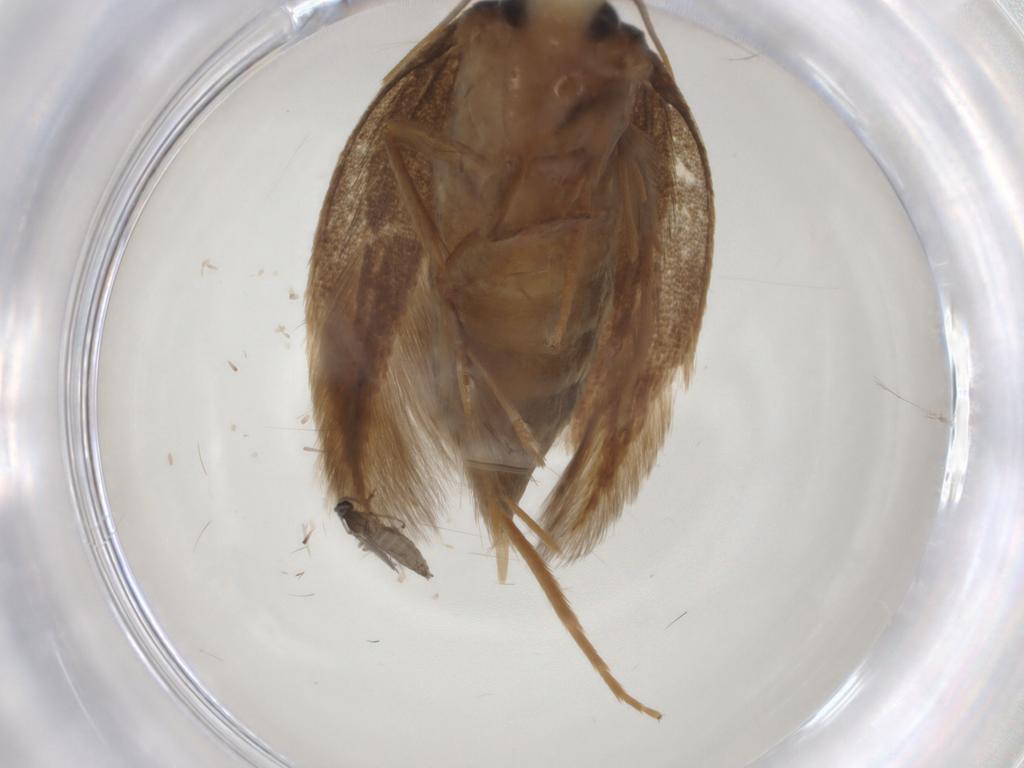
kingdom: Animalia
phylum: Arthropoda
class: Insecta
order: Lepidoptera
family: Tineidae
